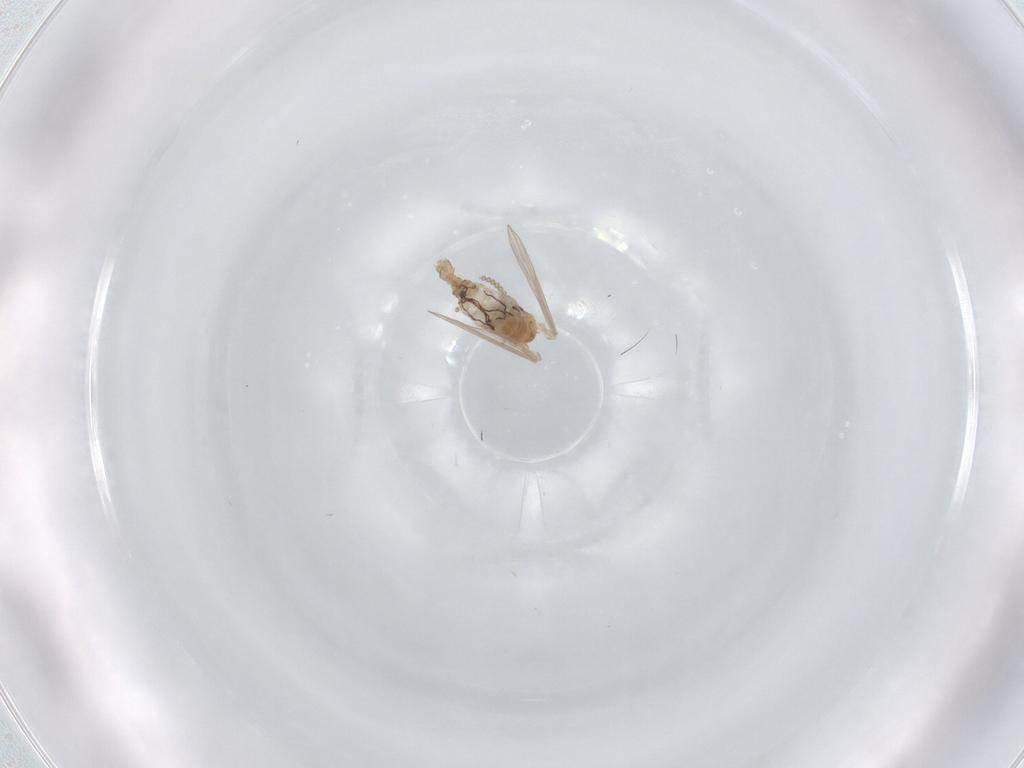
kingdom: Animalia
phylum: Arthropoda
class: Insecta
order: Diptera
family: Psychodidae
